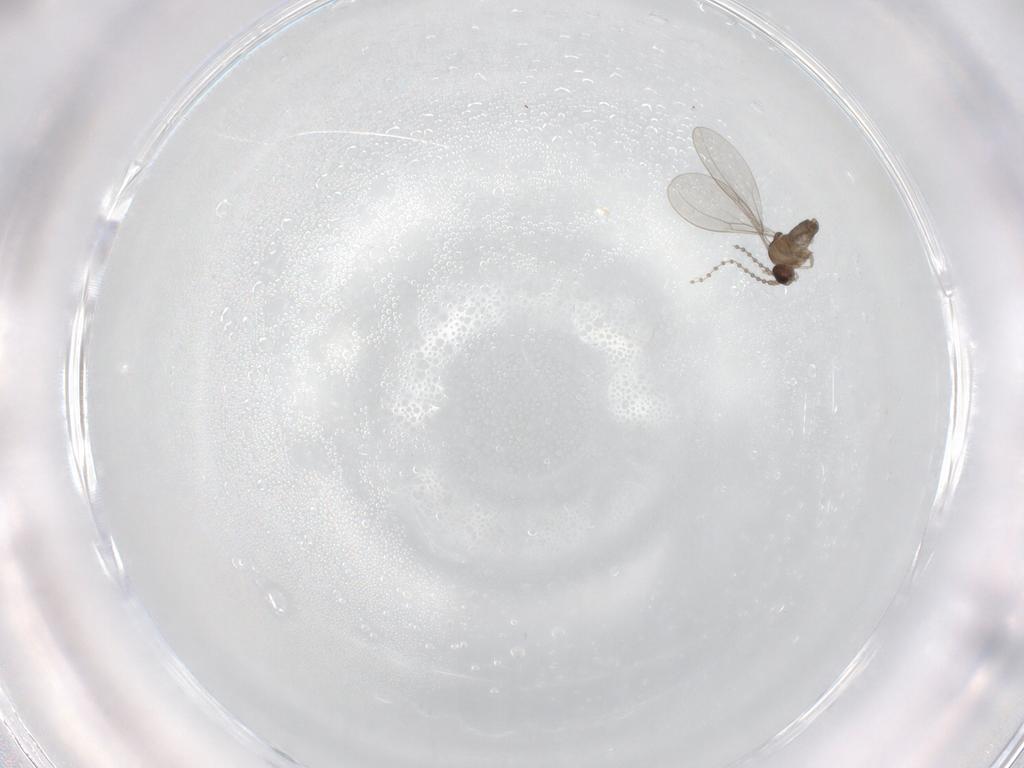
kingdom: Animalia
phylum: Arthropoda
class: Insecta
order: Diptera
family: Cecidomyiidae
